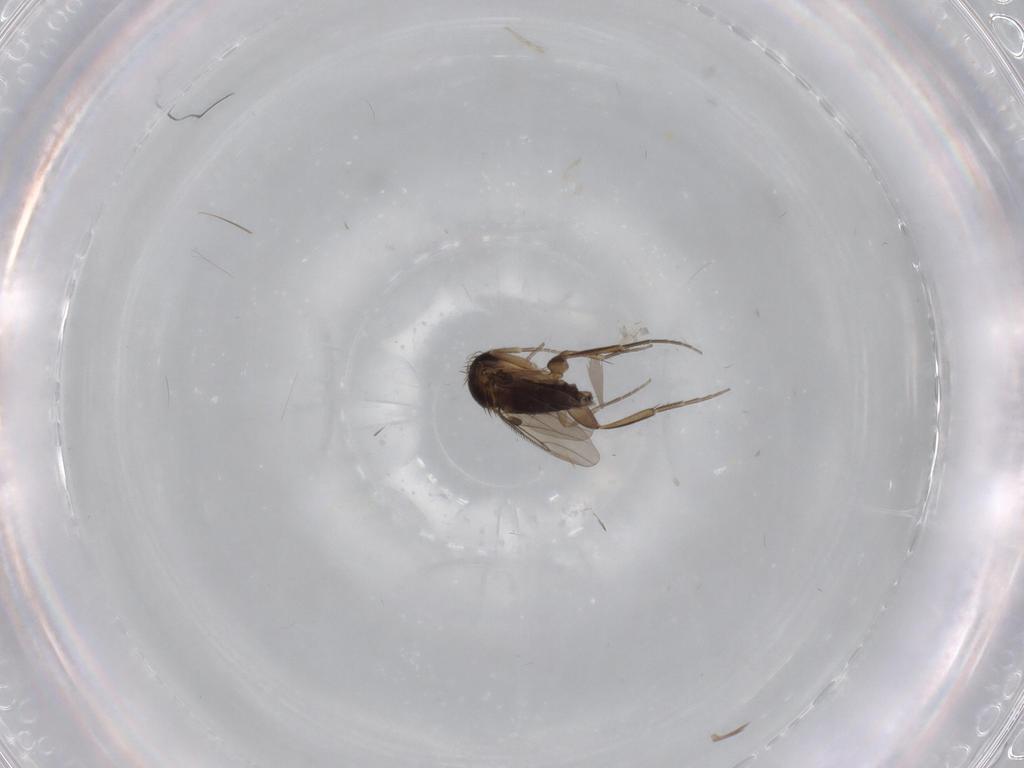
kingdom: Animalia
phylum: Arthropoda
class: Insecta
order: Diptera
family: Phoridae
